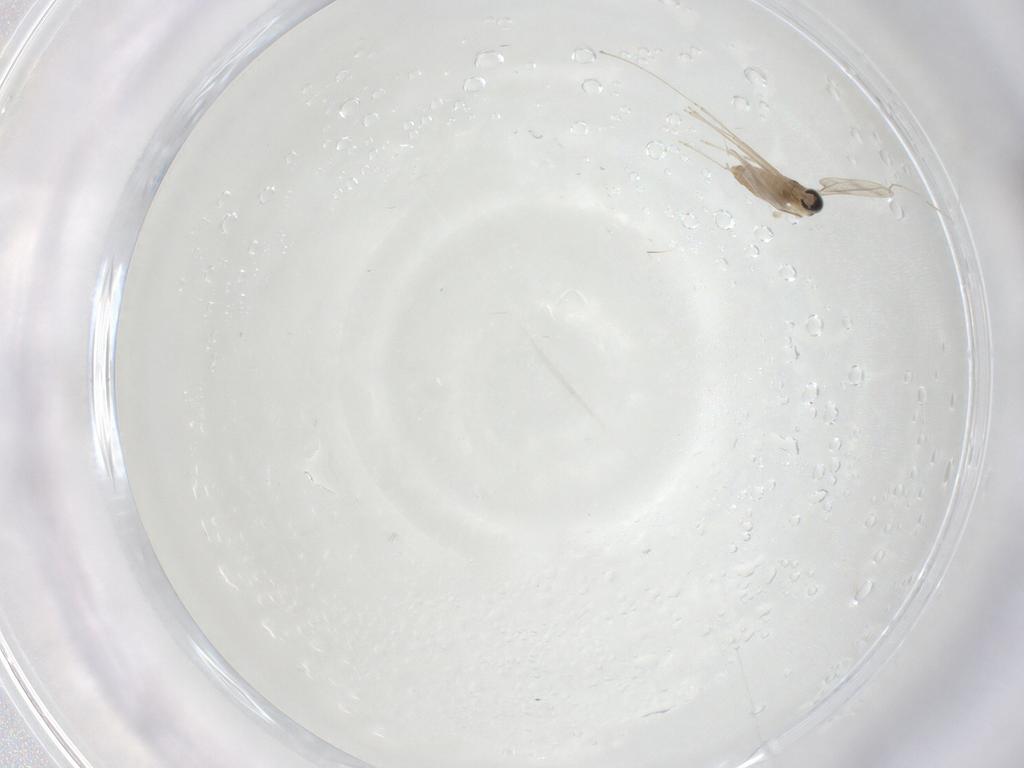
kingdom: Animalia
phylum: Arthropoda
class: Insecta
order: Diptera
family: Cecidomyiidae
